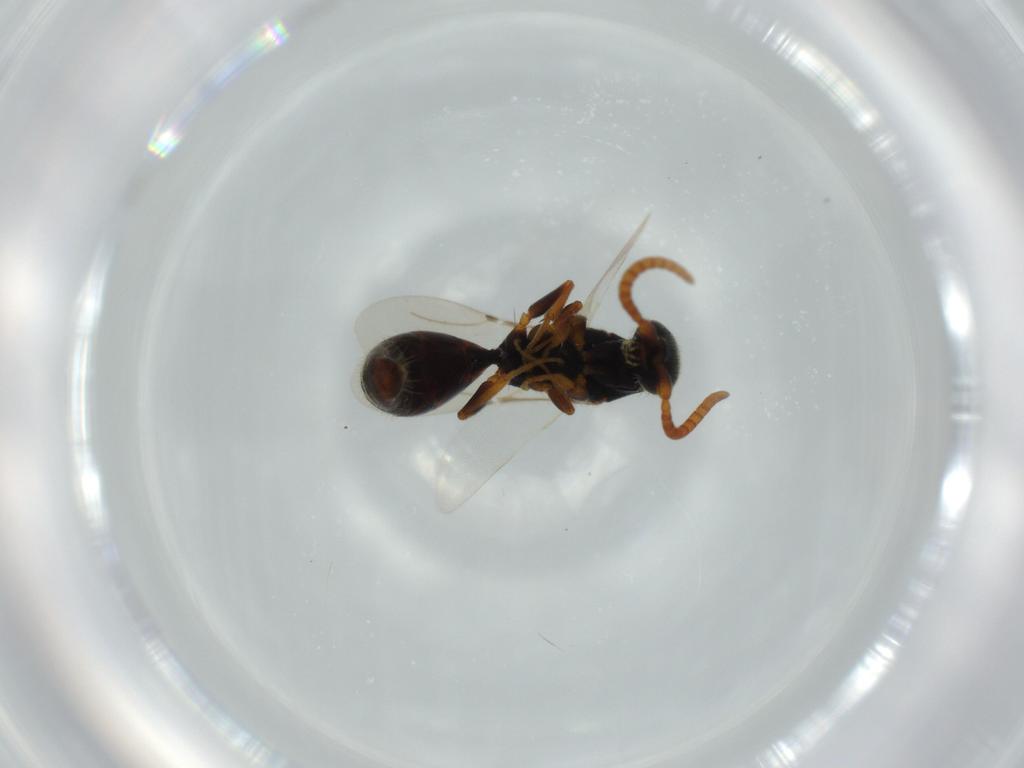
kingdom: Animalia
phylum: Arthropoda
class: Insecta
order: Hymenoptera
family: Bethylidae
